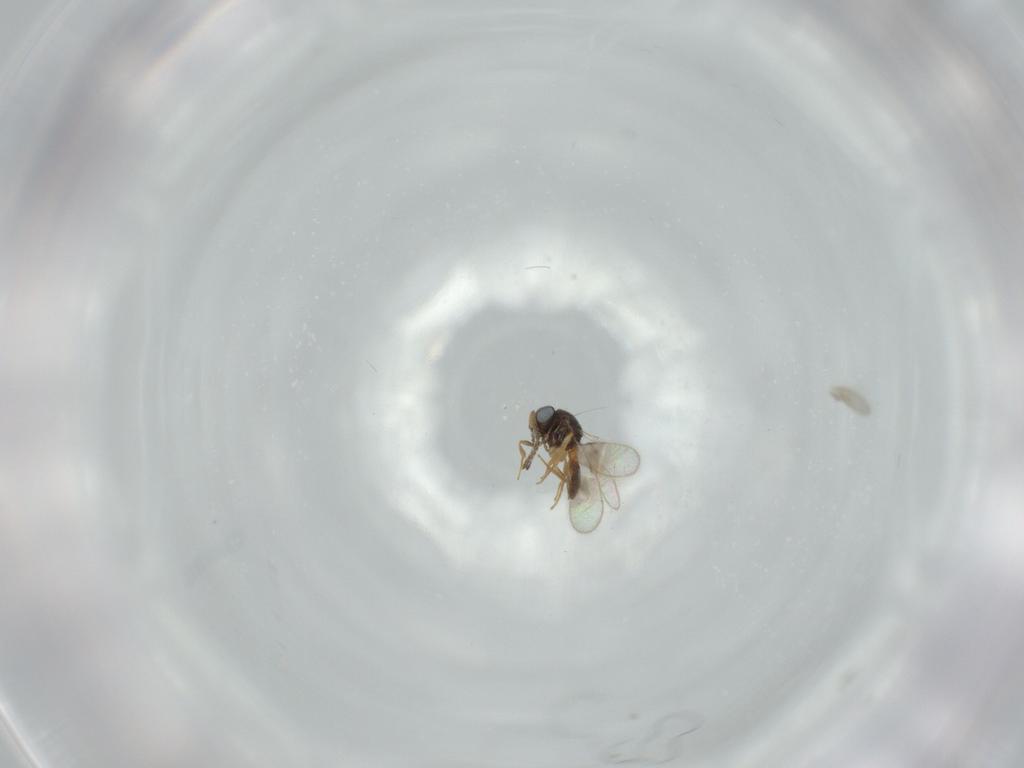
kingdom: Animalia
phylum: Arthropoda
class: Insecta
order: Hymenoptera
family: Scelionidae
